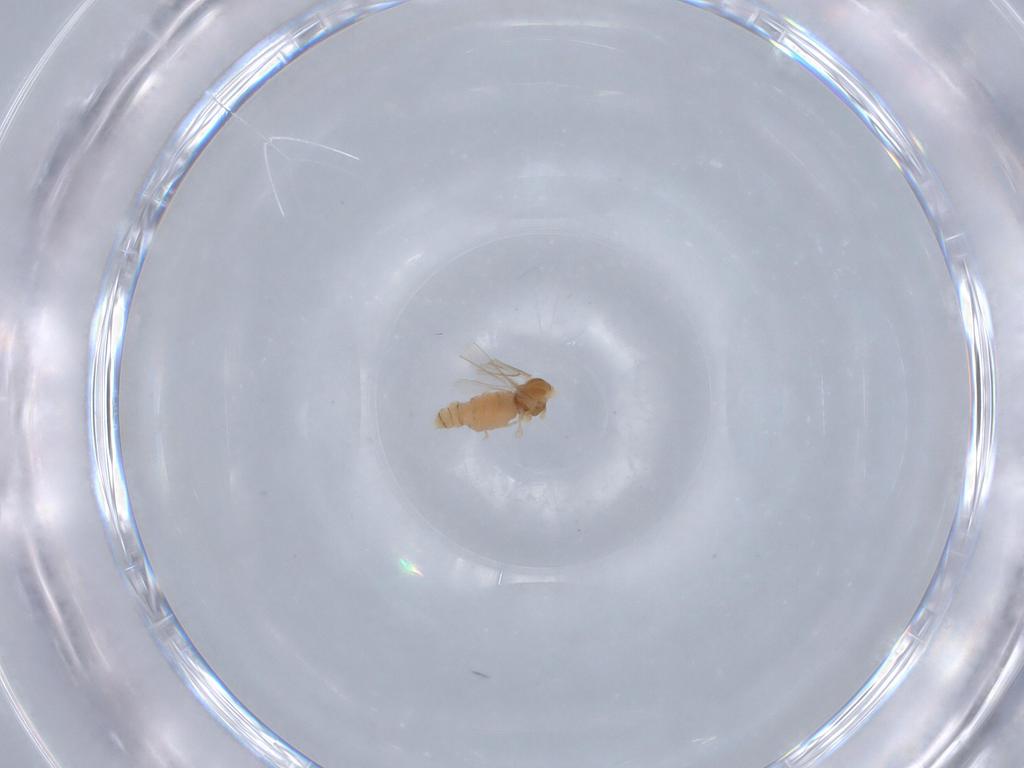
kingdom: Animalia
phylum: Arthropoda
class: Insecta
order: Diptera
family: Cecidomyiidae
